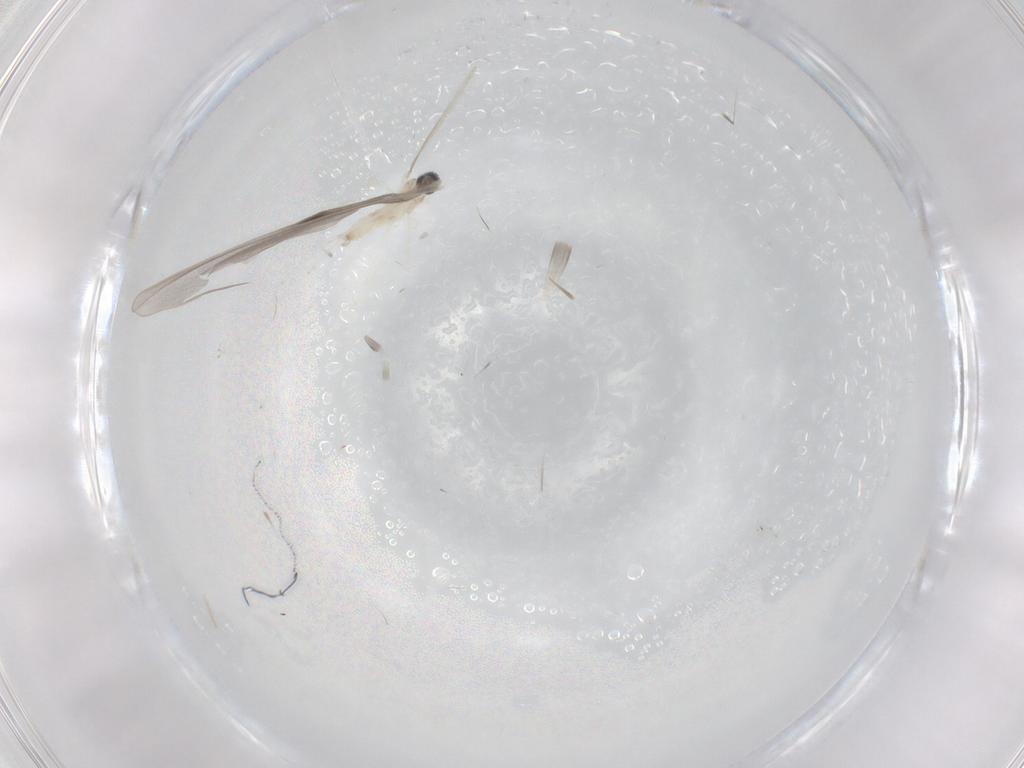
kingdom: Animalia
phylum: Arthropoda
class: Insecta
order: Diptera
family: Cecidomyiidae
